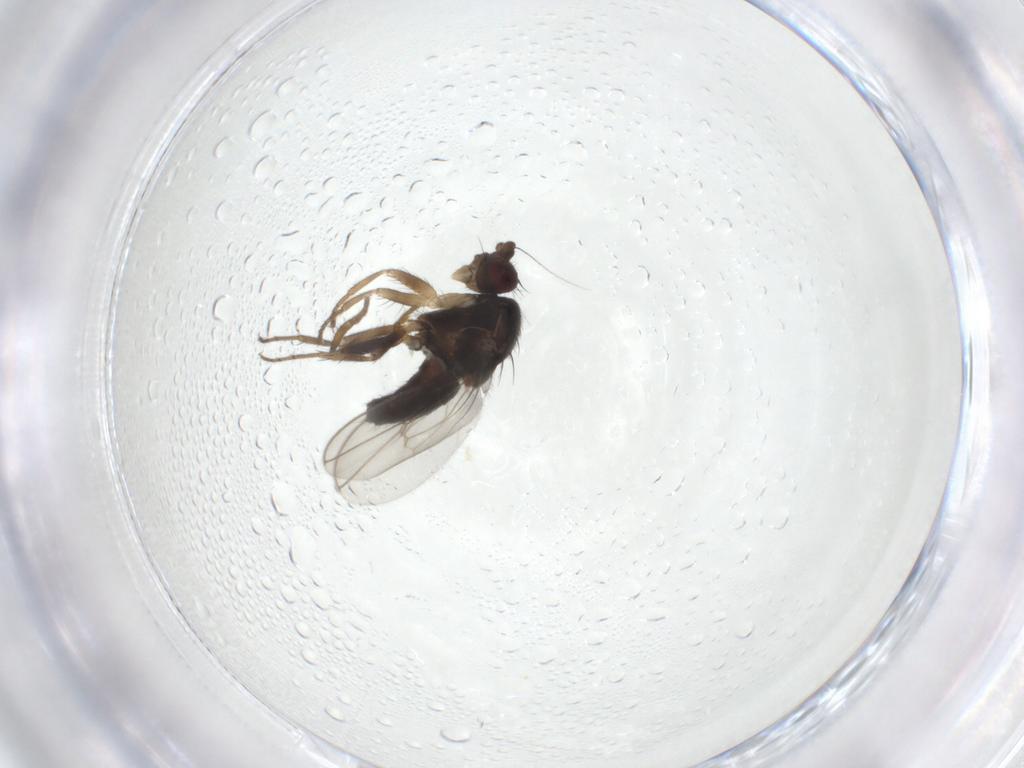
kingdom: Animalia
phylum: Arthropoda
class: Insecta
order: Diptera
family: Sphaeroceridae
